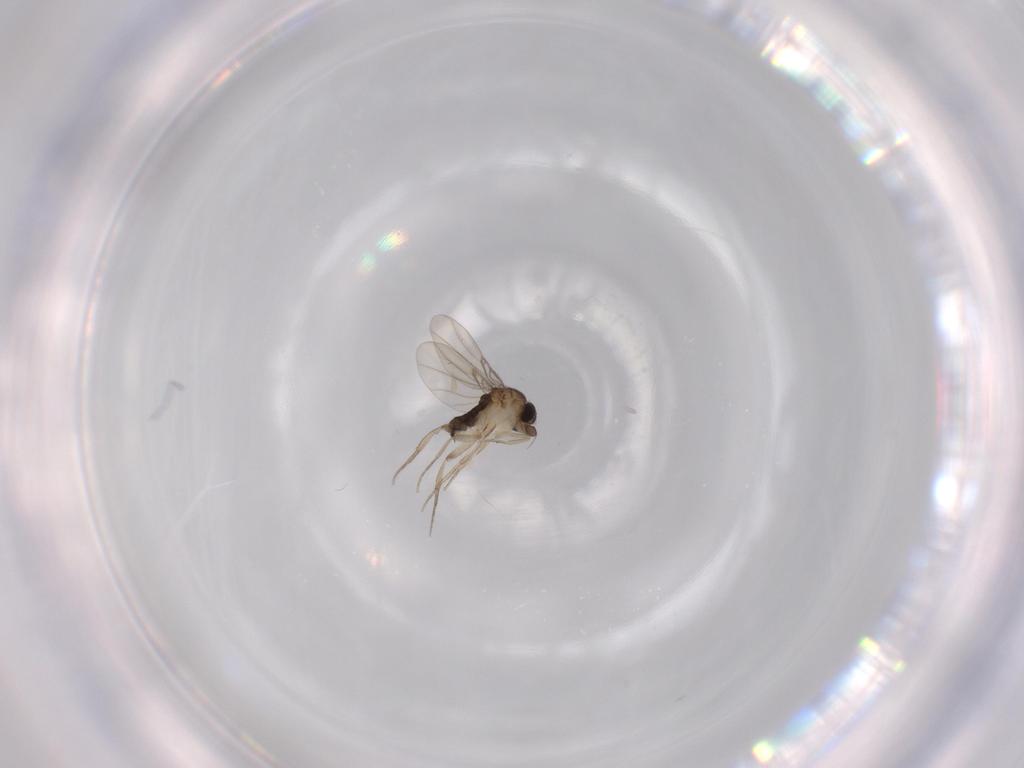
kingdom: Animalia
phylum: Arthropoda
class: Insecta
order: Diptera
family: Phoridae
